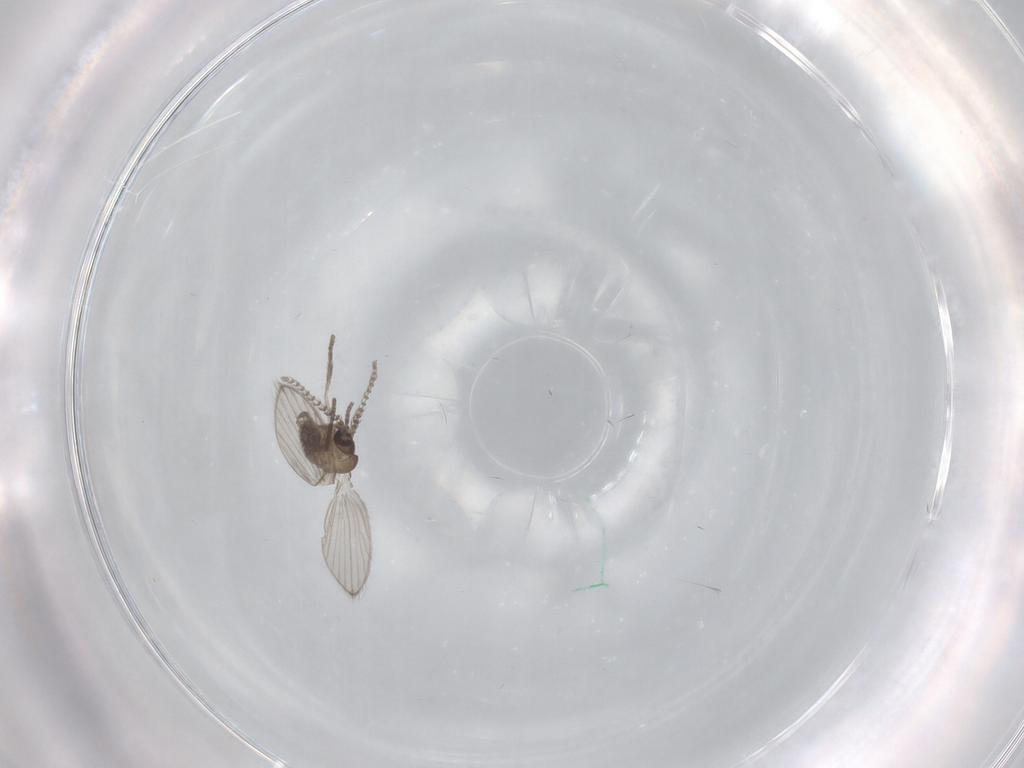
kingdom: Animalia
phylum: Arthropoda
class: Insecta
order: Diptera
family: Psychodidae
